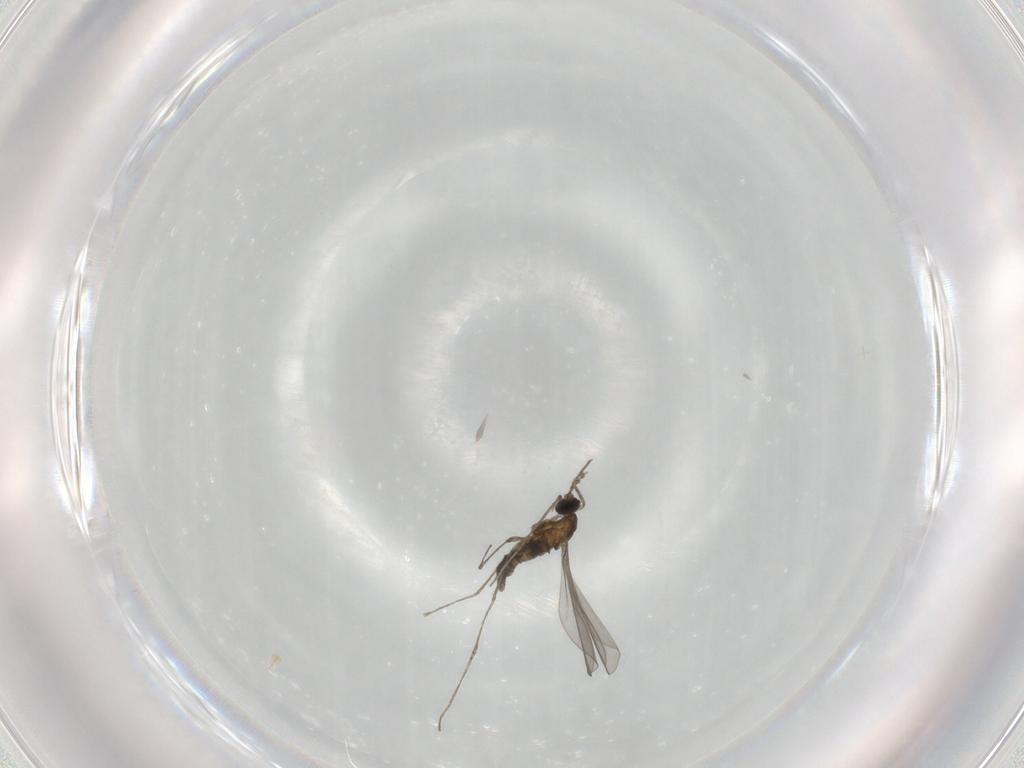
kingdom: Animalia
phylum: Arthropoda
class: Insecta
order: Diptera
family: Cecidomyiidae
